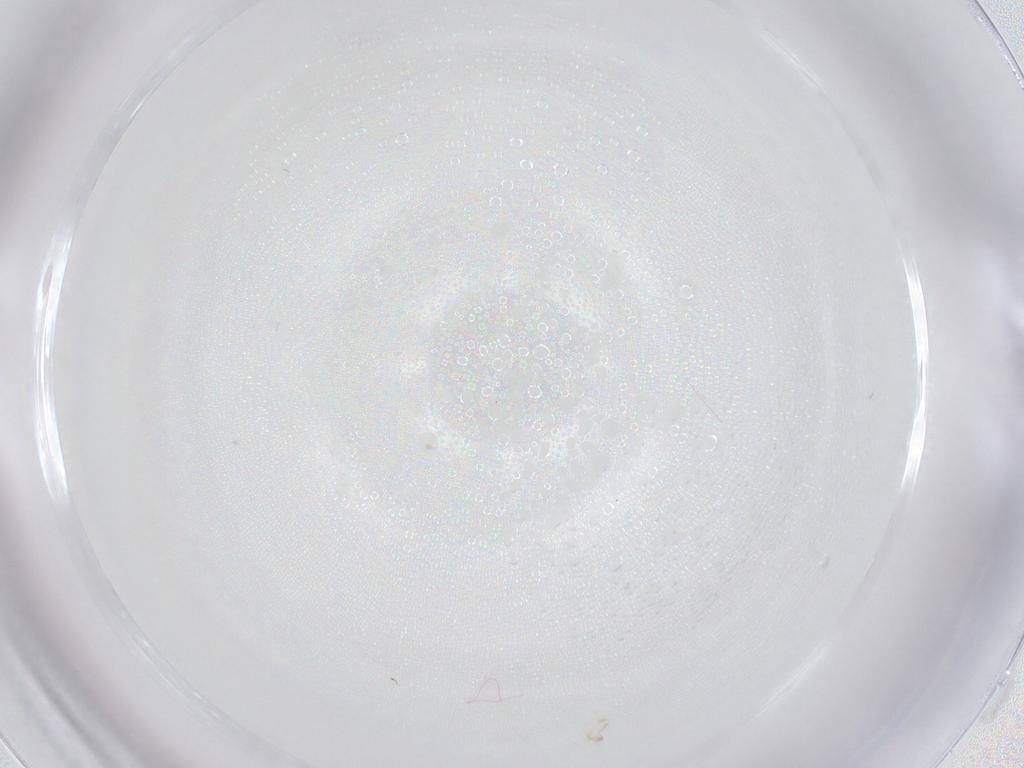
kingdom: Animalia
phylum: Arthropoda
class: Insecta
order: Diptera
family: Cecidomyiidae
